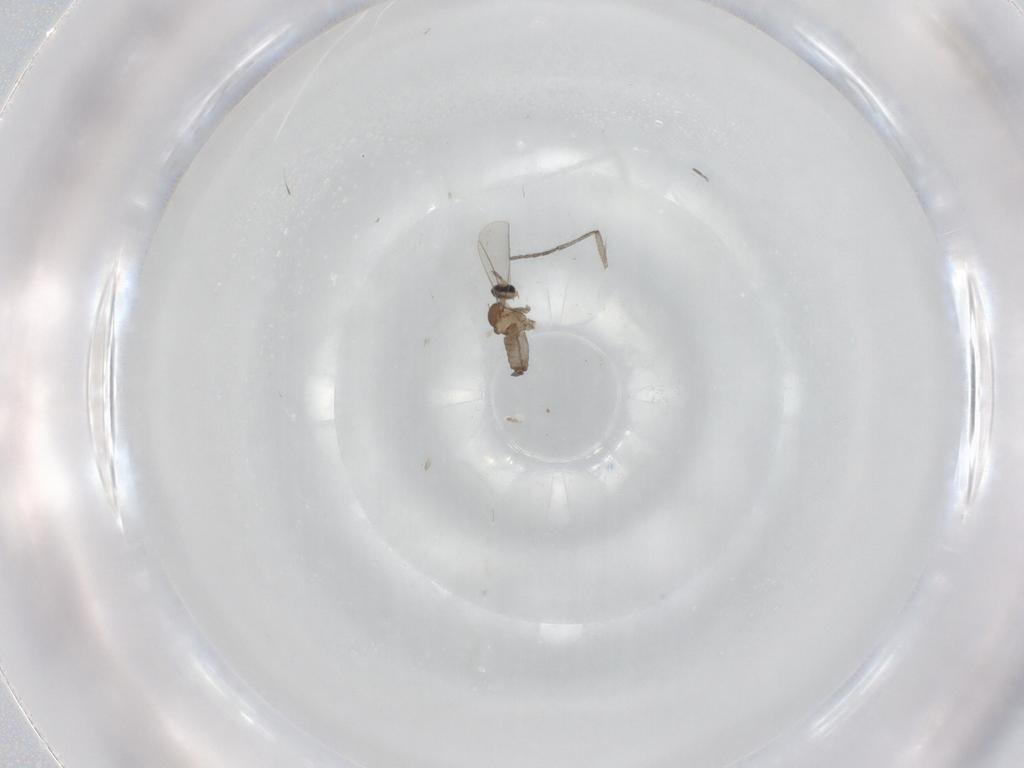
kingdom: Animalia
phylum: Arthropoda
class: Insecta
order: Diptera
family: Cecidomyiidae
